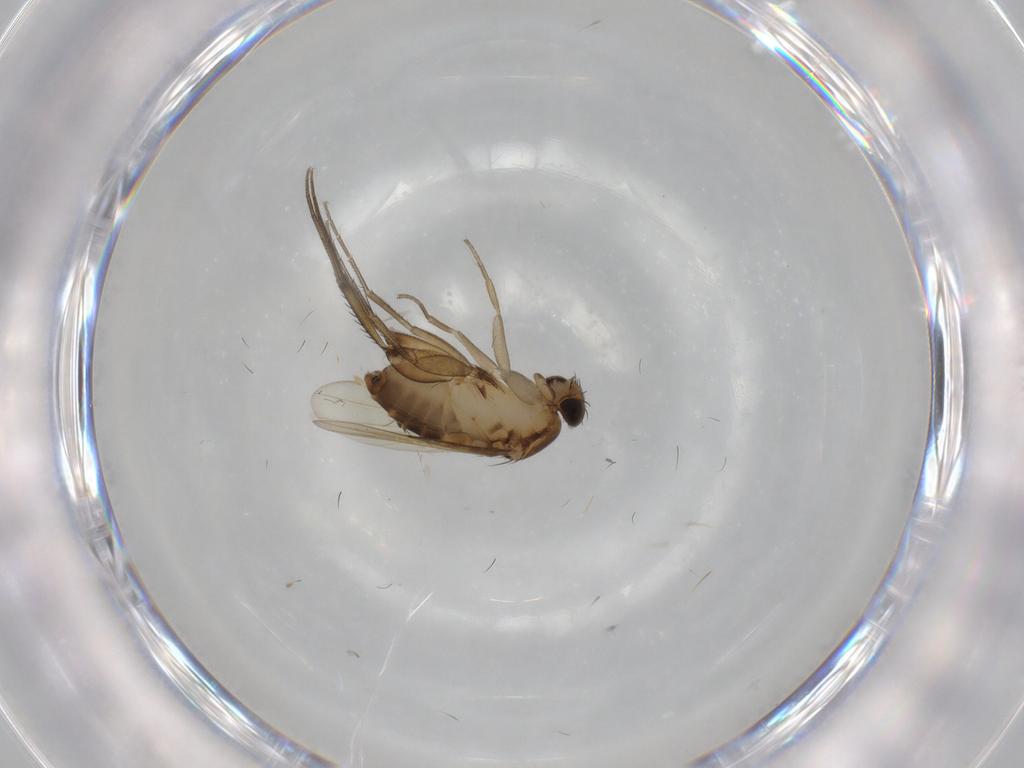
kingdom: Animalia
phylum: Arthropoda
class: Insecta
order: Diptera
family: Phoridae
